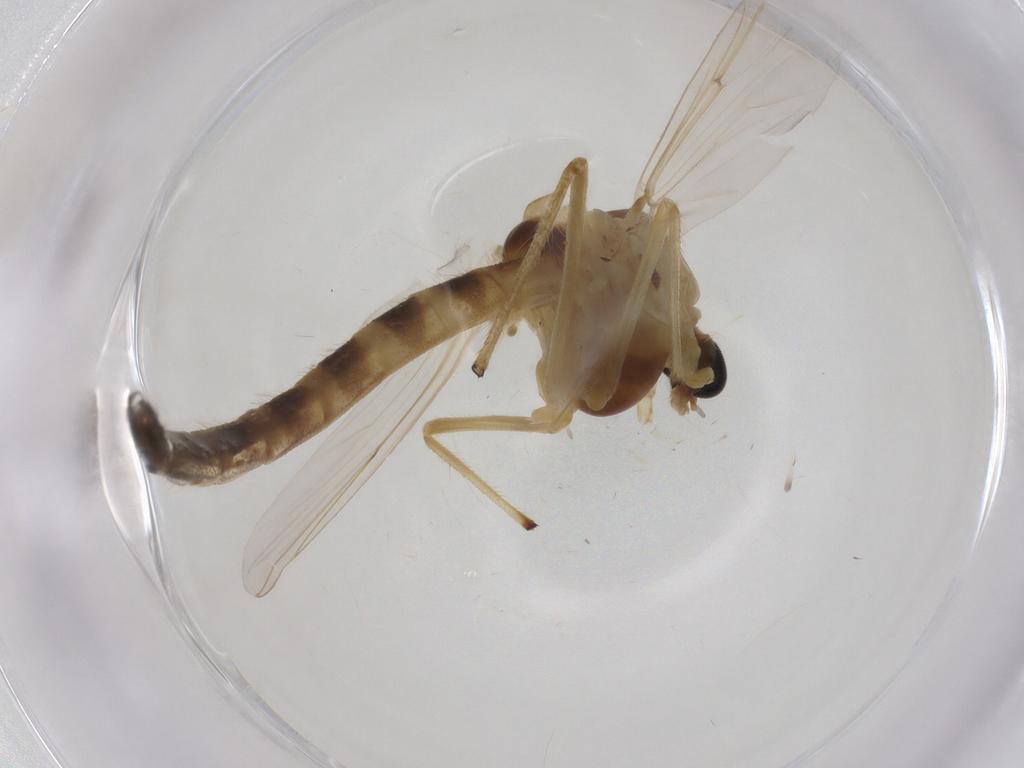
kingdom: Animalia
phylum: Arthropoda
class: Insecta
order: Diptera
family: Chironomidae
